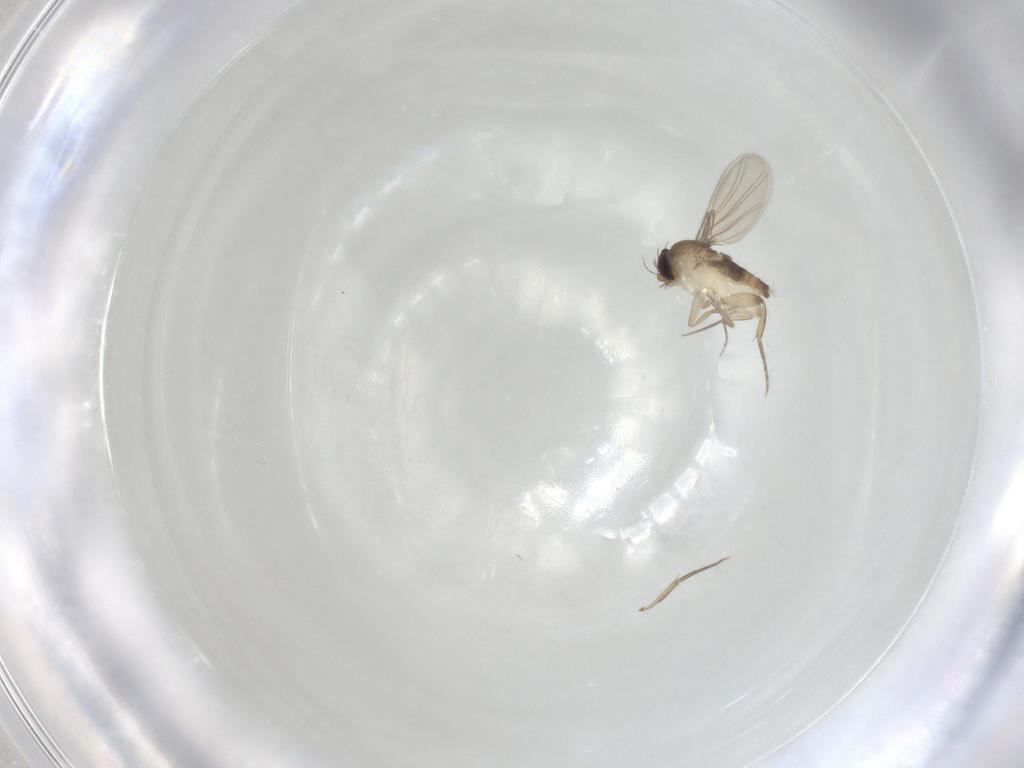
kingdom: Animalia
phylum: Arthropoda
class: Insecta
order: Diptera
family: Phoridae
